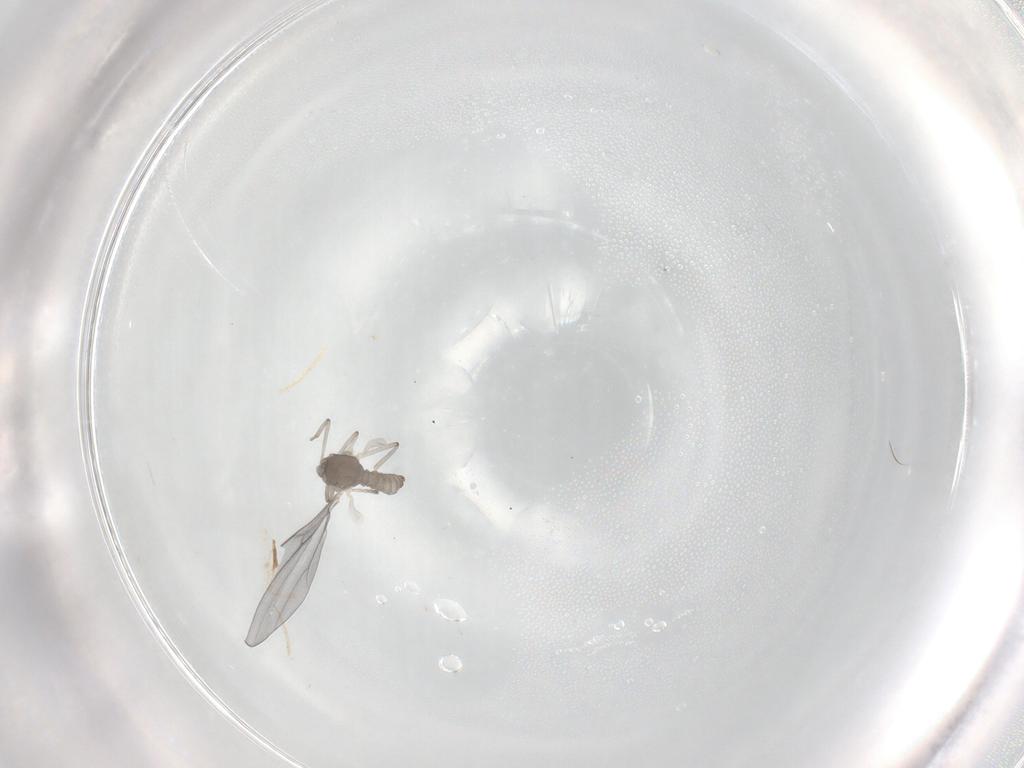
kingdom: Animalia
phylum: Arthropoda
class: Insecta
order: Diptera
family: Cecidomyiidae
